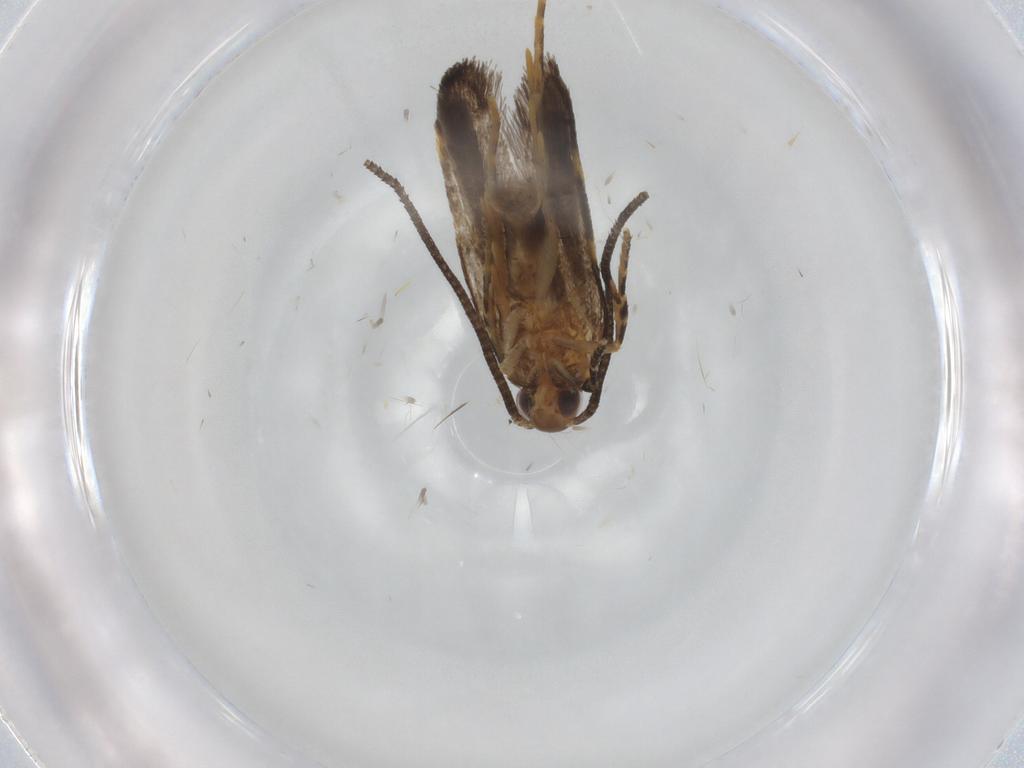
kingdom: Animalia
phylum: Arthropoda
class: Insecta
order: Lepidoptera
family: Autostichidae
